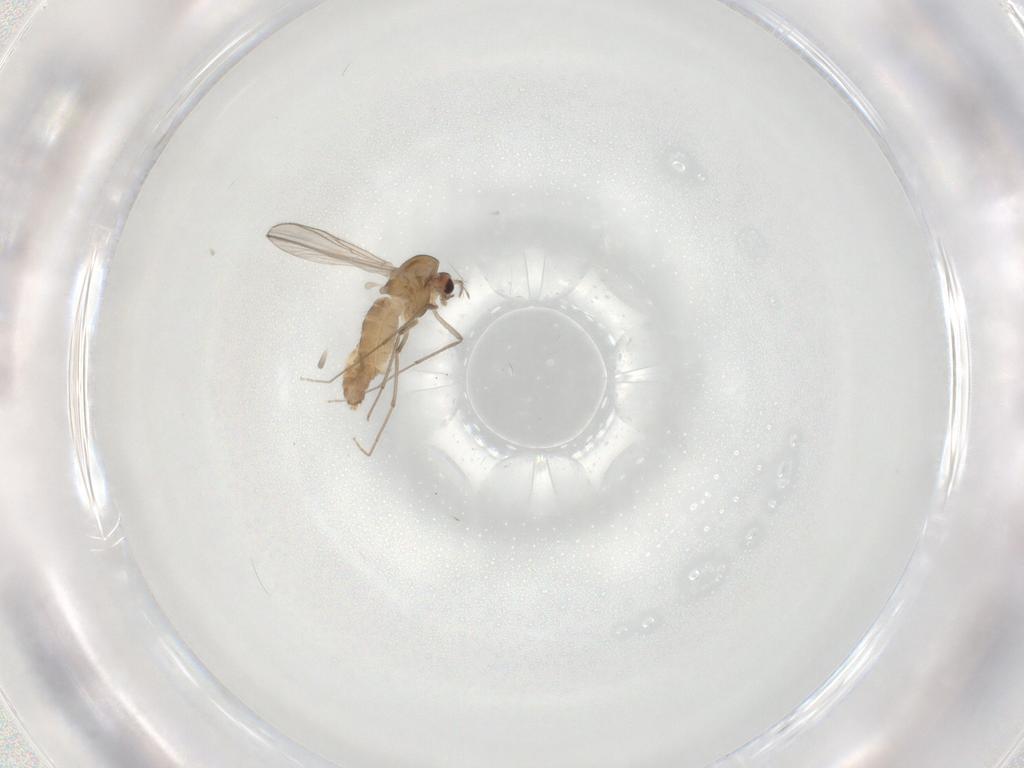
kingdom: Animalia
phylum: Arthropoda
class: Insecta
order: Diptera
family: Chironomidae
